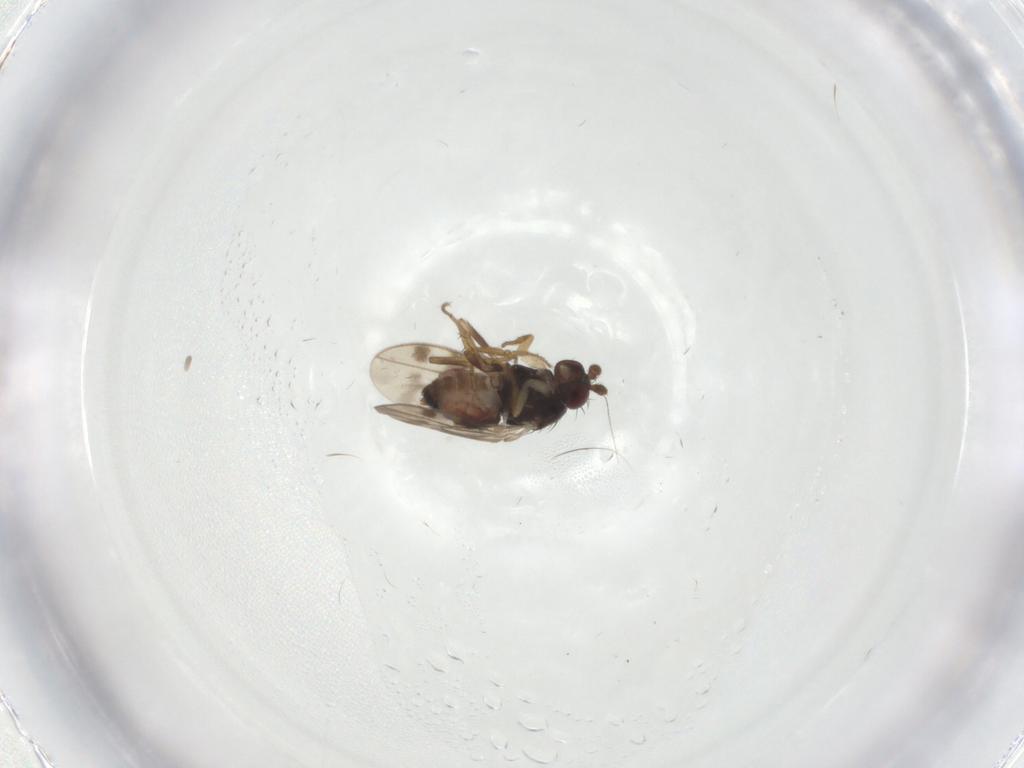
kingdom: Animalia
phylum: Arthropoda
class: Insecta
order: Diptera
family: Sphaeroceridae
